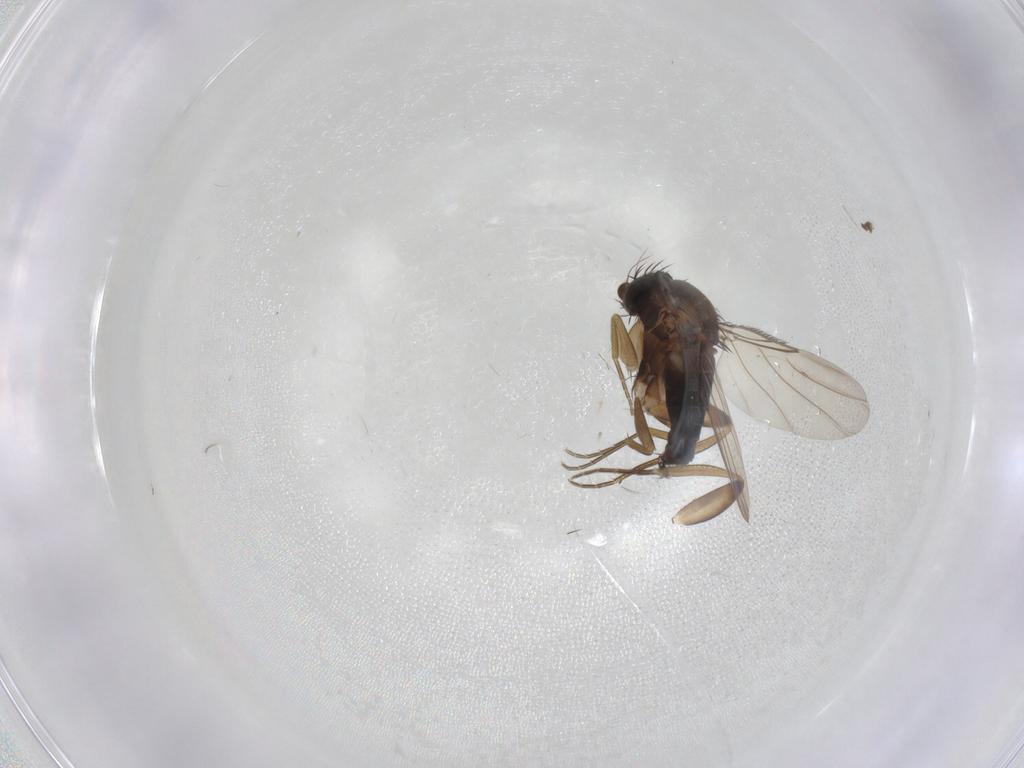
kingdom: Animalia
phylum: Arthropoda
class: Insecta
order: Diptera
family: Phoridae
